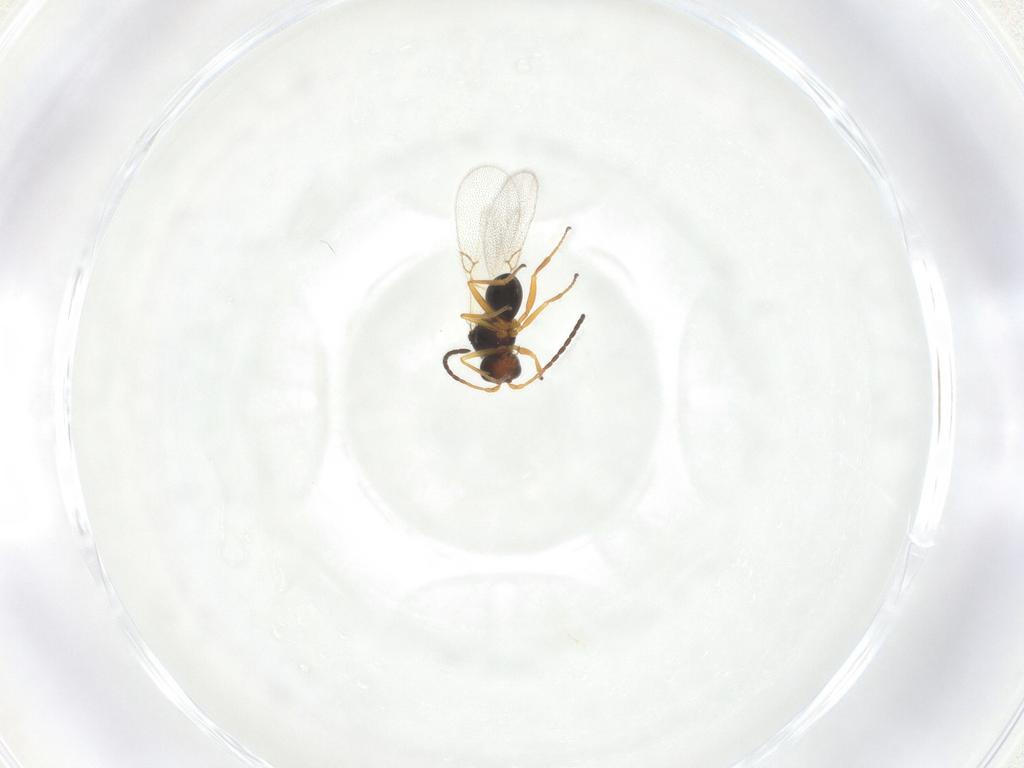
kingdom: Animalia
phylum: Arthropoda
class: Insecta
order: Hymenoptera
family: Figitidae
